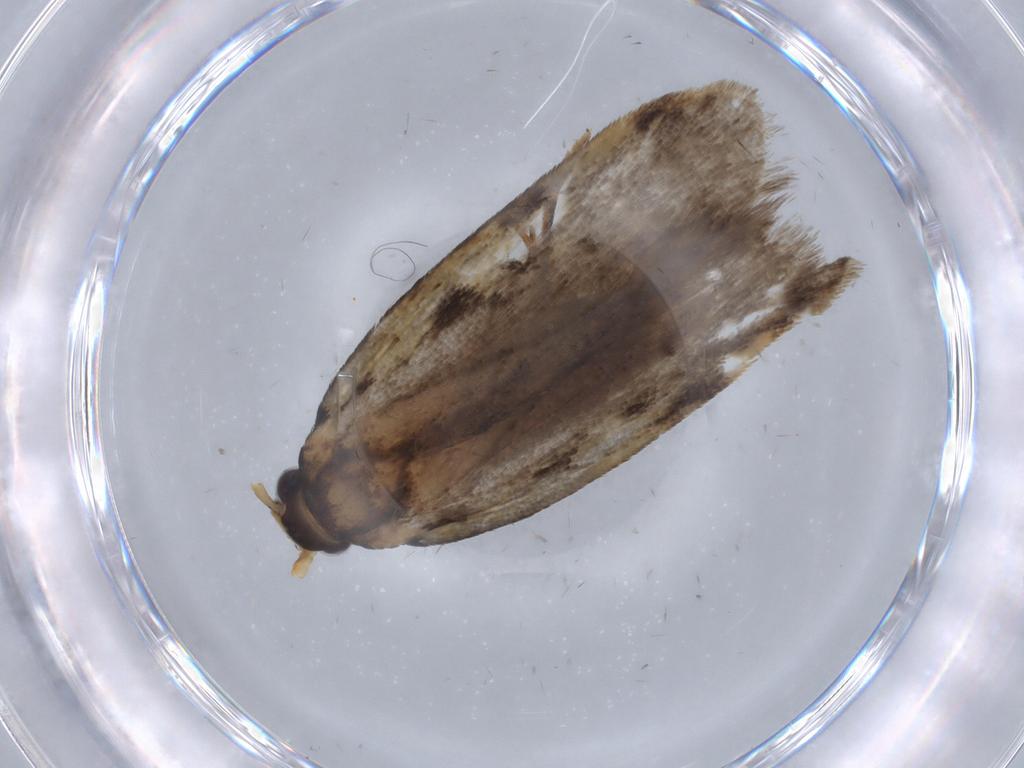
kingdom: Animalia
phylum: Arthropoda
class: Insecta
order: Lepidoptera
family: Oecophoridae
